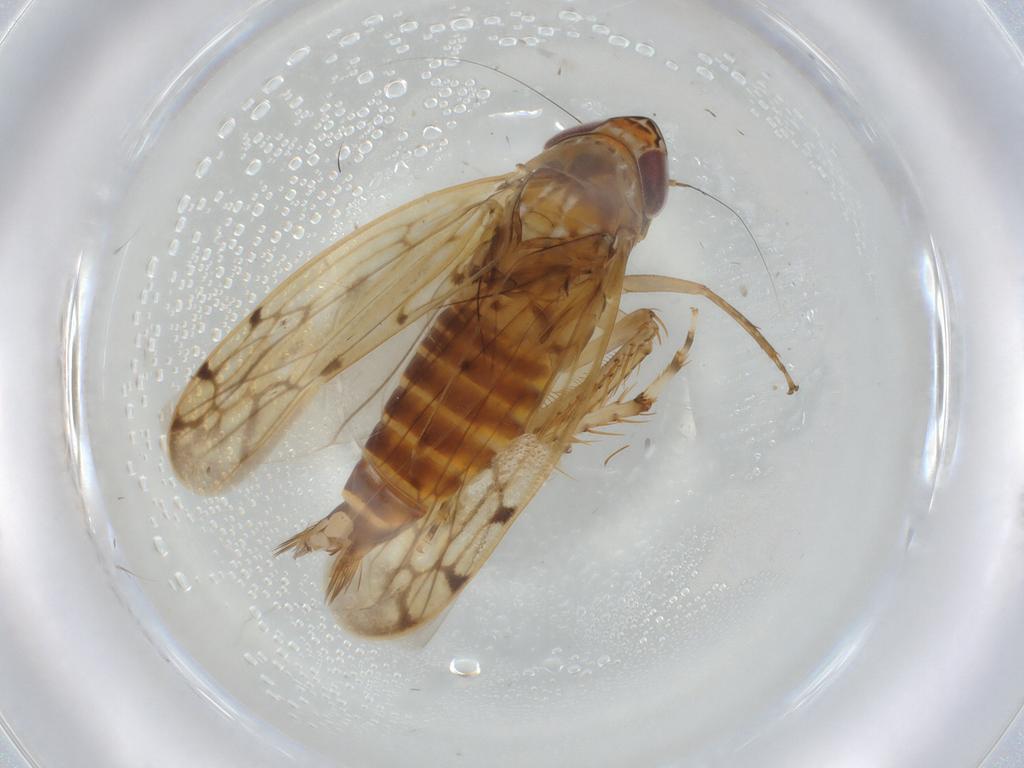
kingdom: Animalia
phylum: Arthropoda
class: Insecta
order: Hemiptera
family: Cicadellidae
